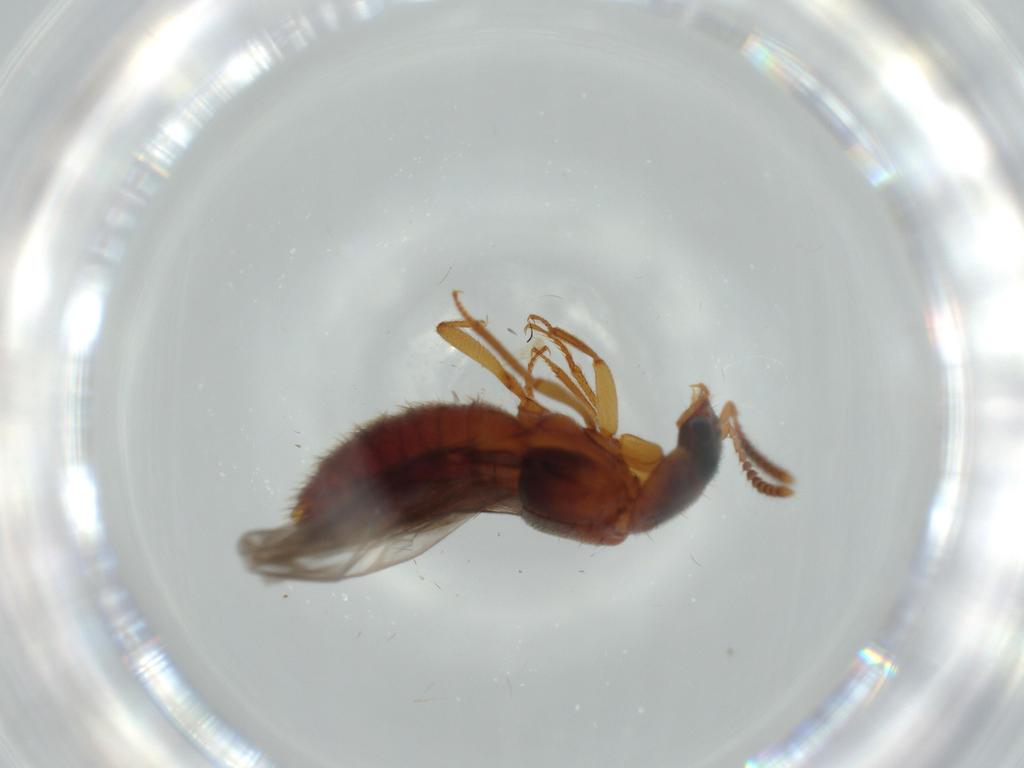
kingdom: Animalia
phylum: Arthropoda
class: Insecta
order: Coleoptera
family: Staphylinidae
